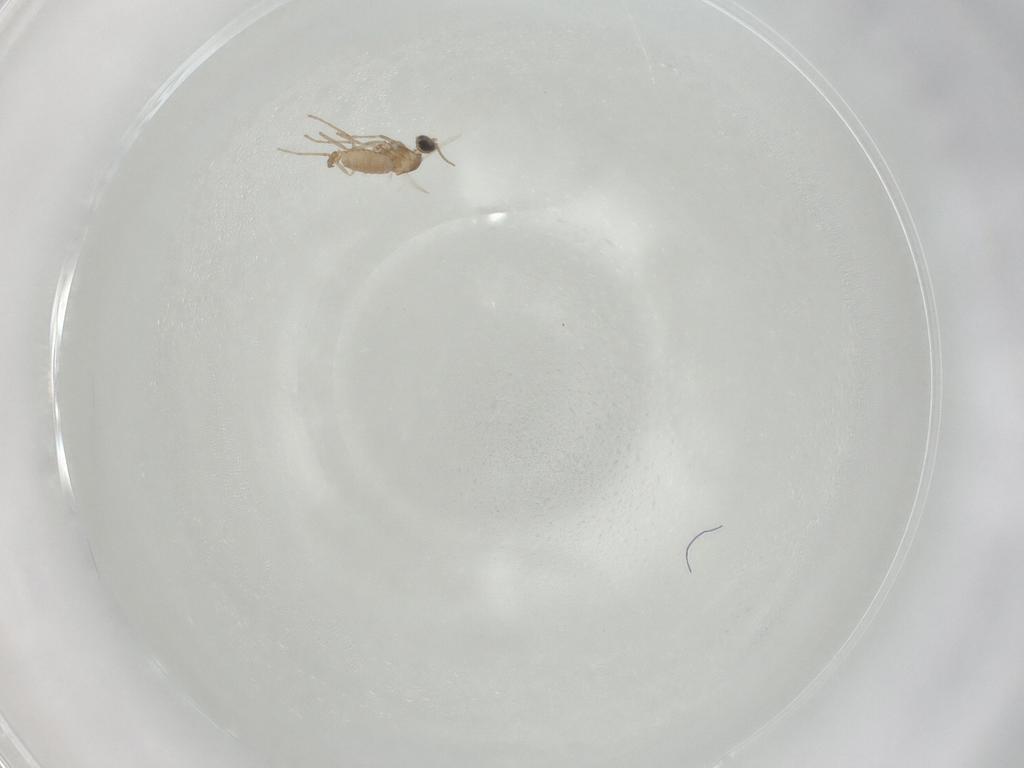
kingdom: Animalia
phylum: Arthropoda
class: Insecta
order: Diptera
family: Cecidomyiidae
